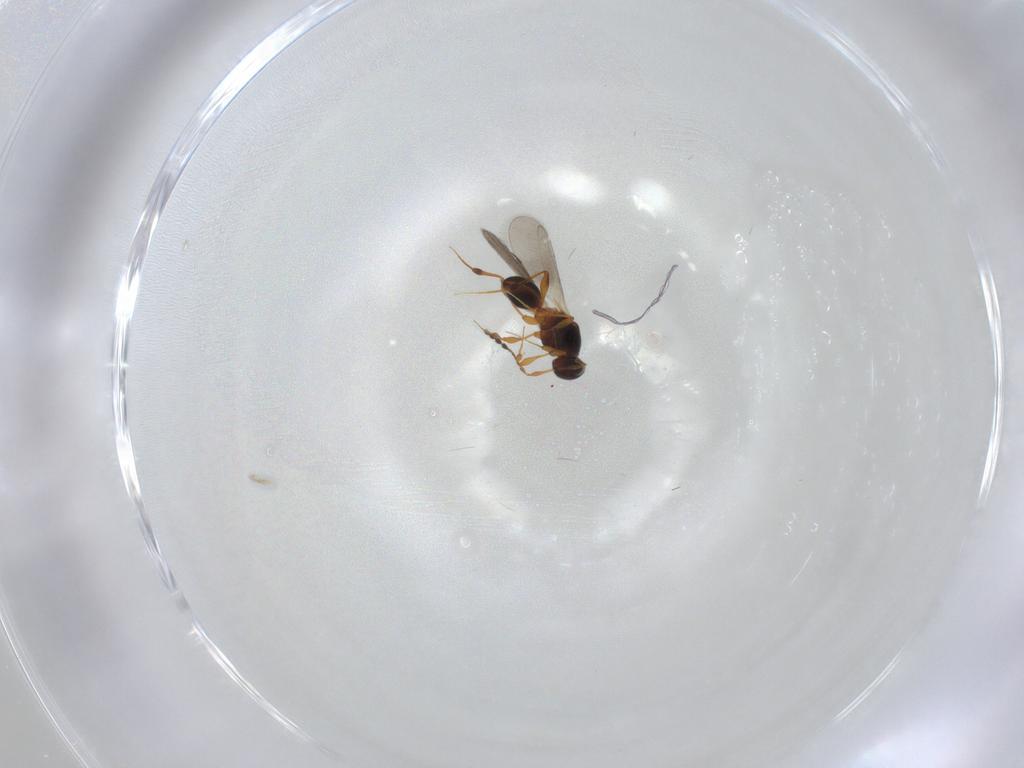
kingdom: Animalia
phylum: Arthropoda
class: Insecta
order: Hymenoptera
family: Platygastridae
